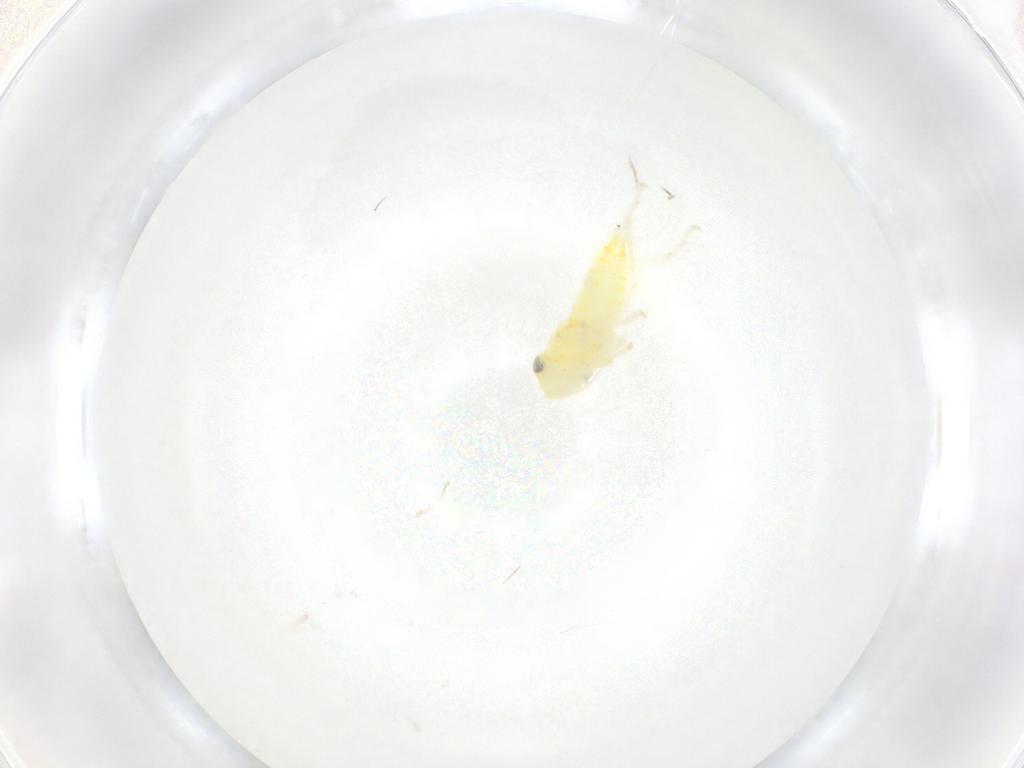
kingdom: Animalia
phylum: Arthropoda
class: Insecta
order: Hemiptera
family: Cicadellidae
